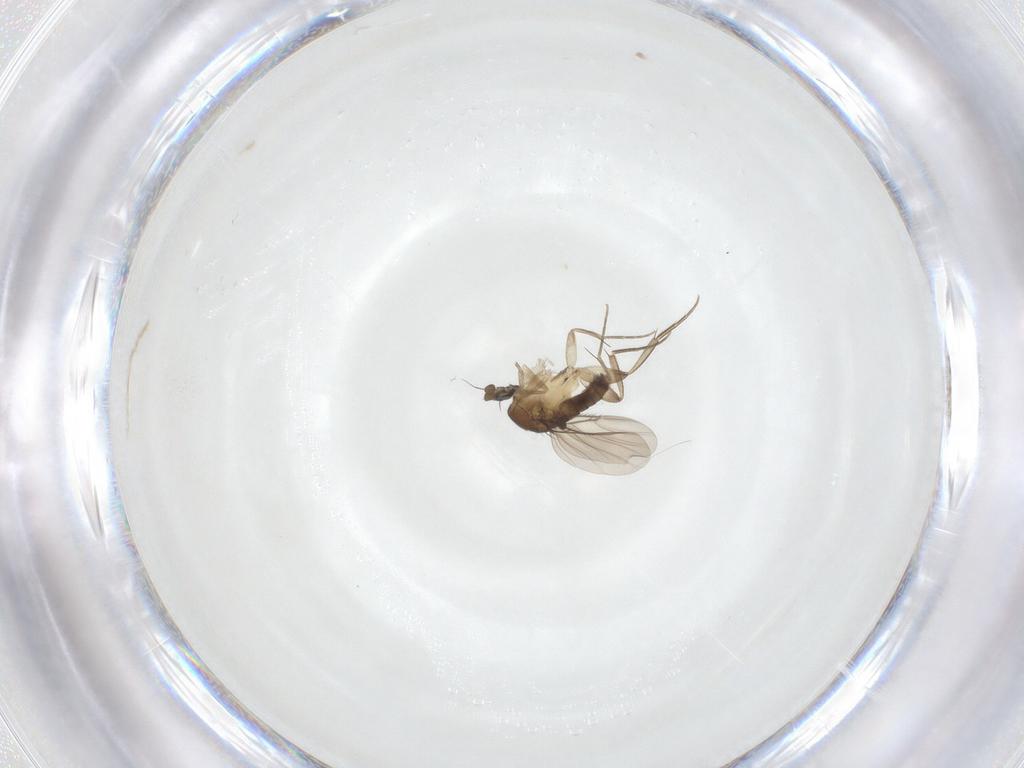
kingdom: Animalia
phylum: Arthropoda
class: Insecta
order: Diptera
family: Phoridae
